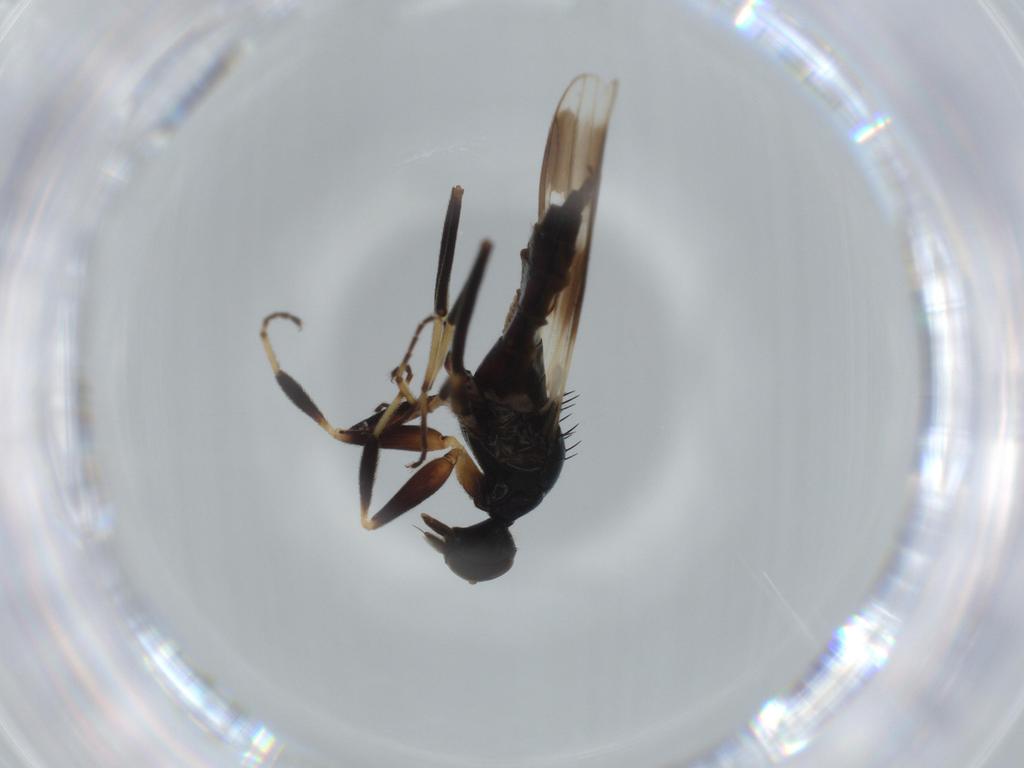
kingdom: Animalia
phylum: Arthropoda
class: Insecta
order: Diptera
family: Hybotidae
